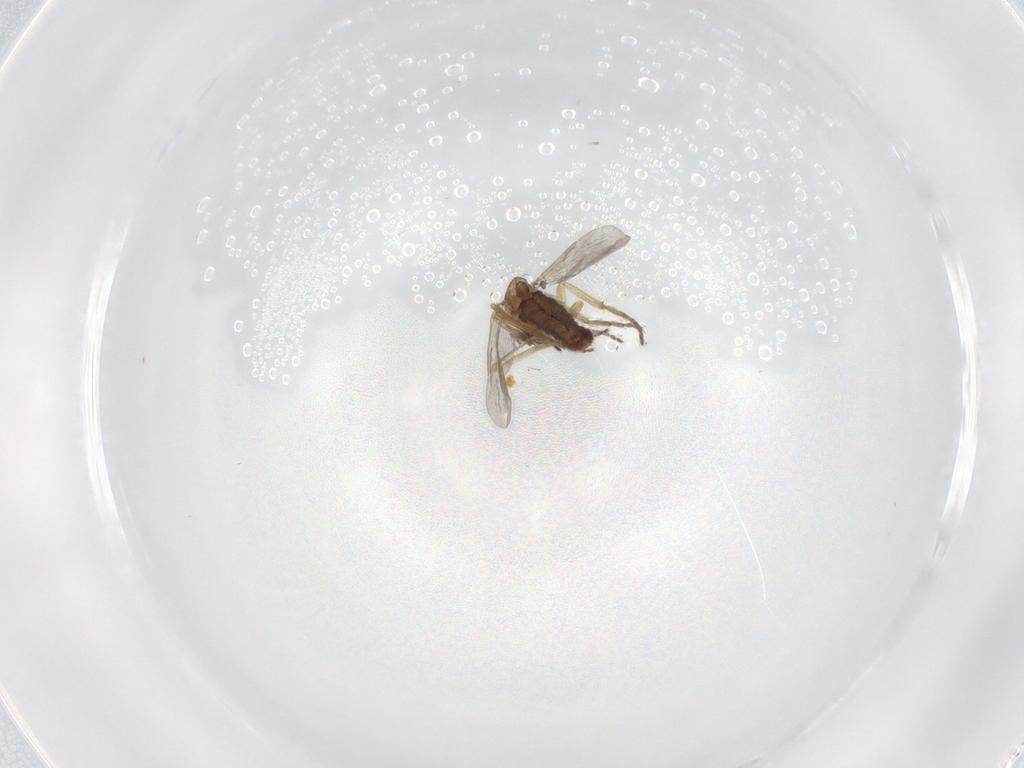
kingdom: Animalia
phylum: Arthropoda
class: Insecta
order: Diptera
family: Ceratopogonidae
